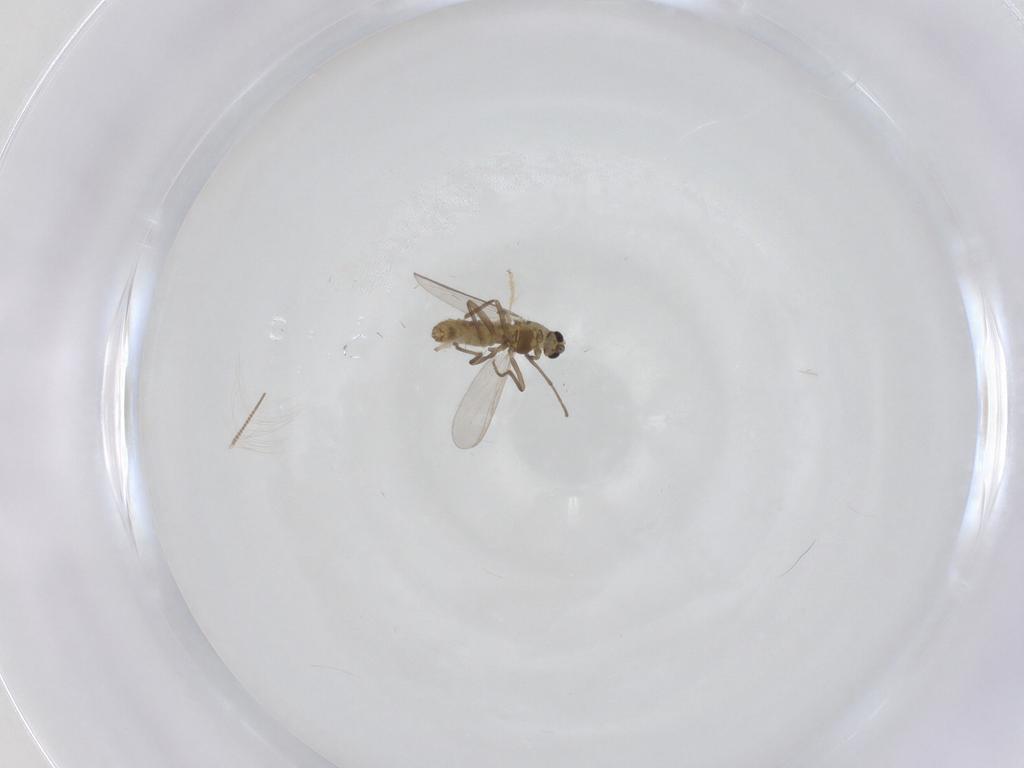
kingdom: Animalia
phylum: Arthropoda
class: Insecta
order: Diptera
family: Chironomidae
